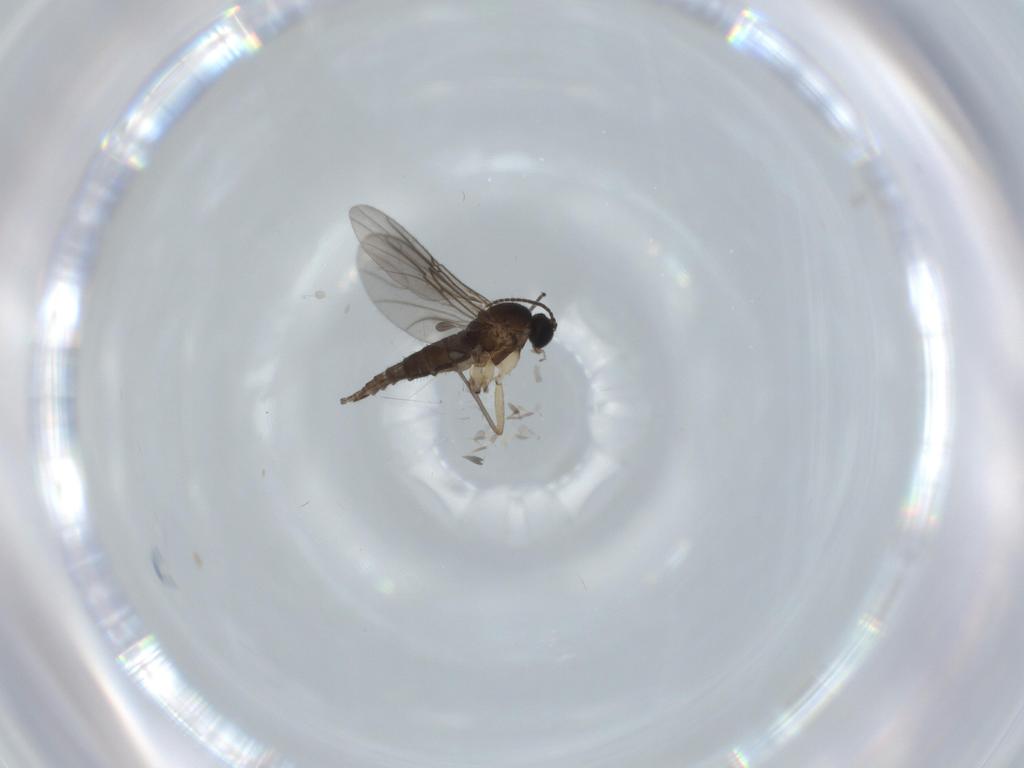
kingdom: Animalia
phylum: Arthropoda
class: Insecta
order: Diptera
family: Sciaridae
